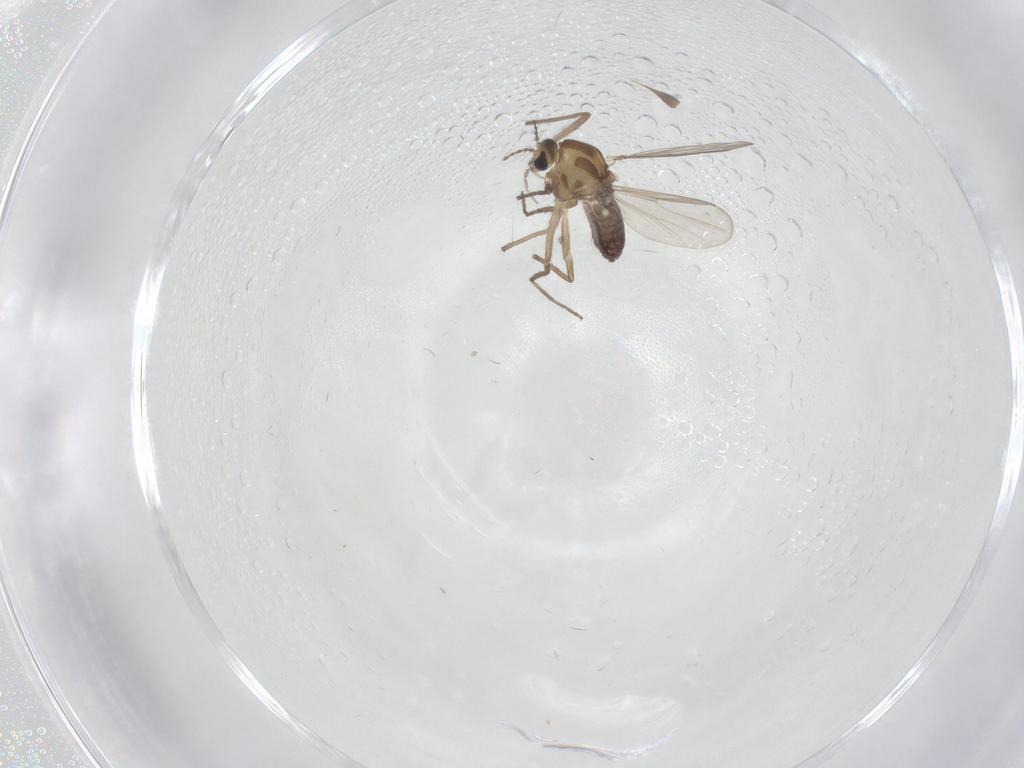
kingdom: Animalia
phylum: Arthropoda
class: Insecta
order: Diptera
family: Chironomidae
